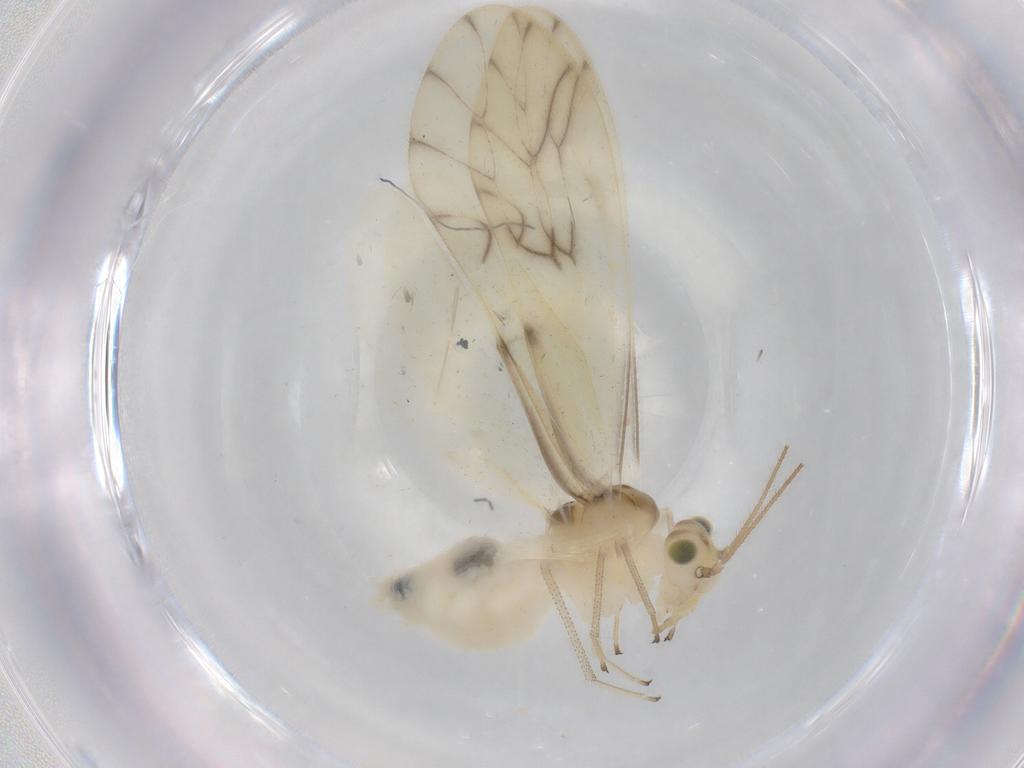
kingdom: Animalia
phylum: Arthropoda
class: Insecta
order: Psocodea
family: Caeciliusidae
